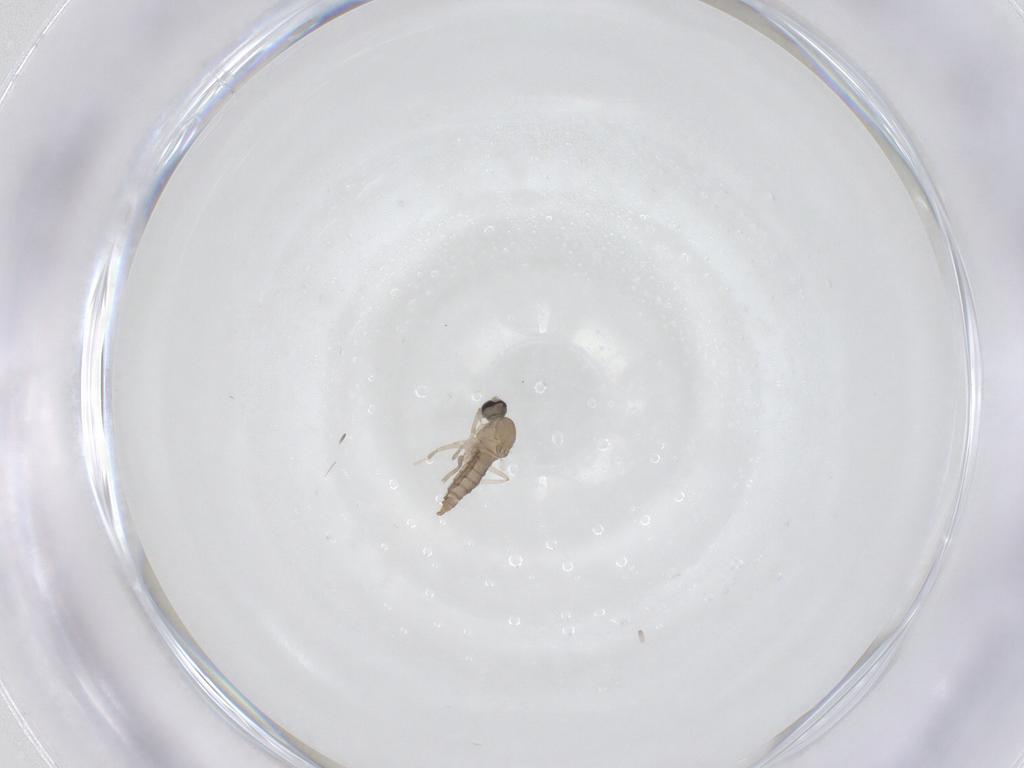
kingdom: Animalia
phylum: Arthropoda
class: Insecta
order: Diptera
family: Cecidomyiidae
